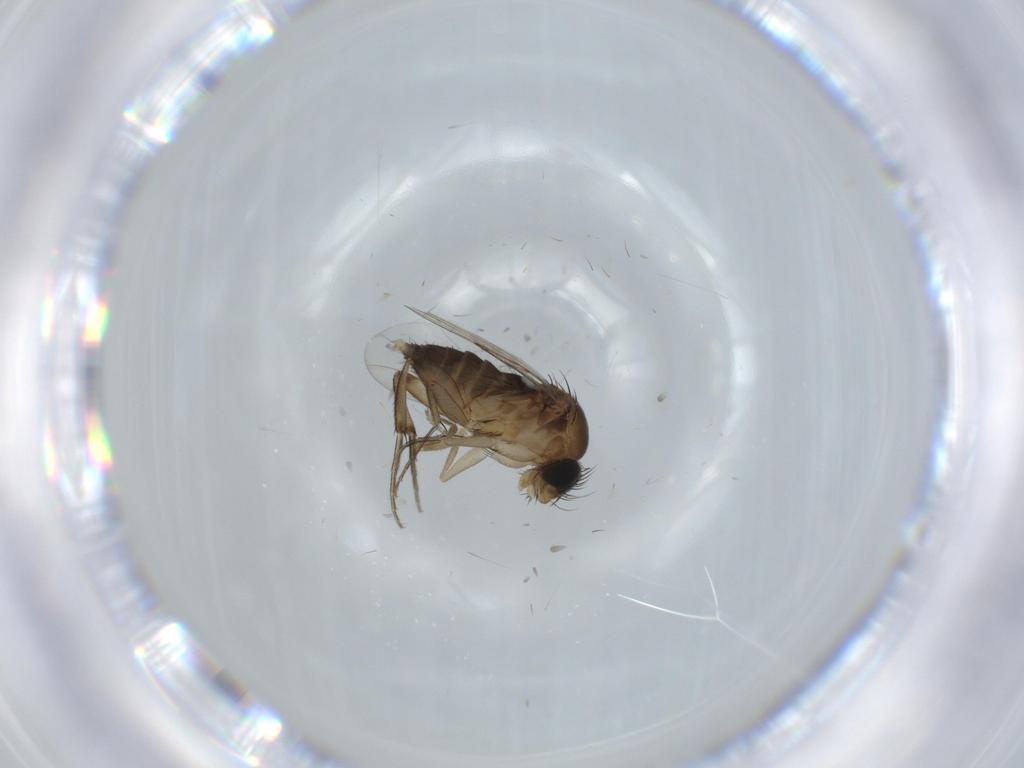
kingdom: Animalia
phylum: Arthropoda
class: Insecta
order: Diptera
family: Phoridae
